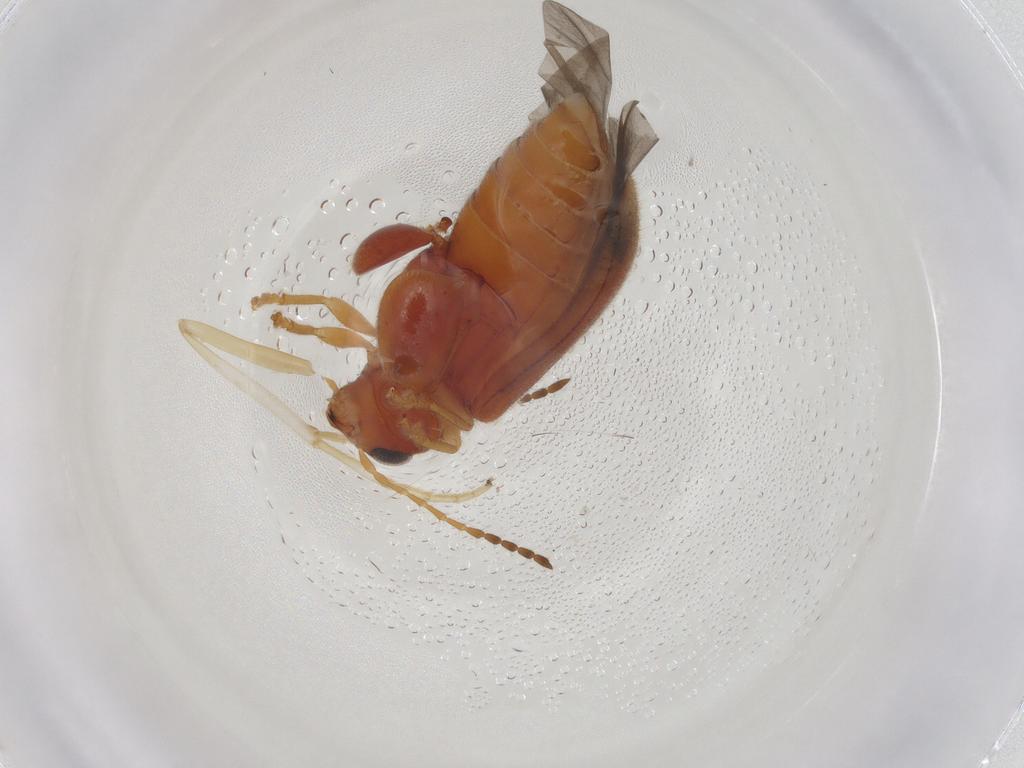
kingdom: Animalia
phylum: Arthropoda
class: Insecta
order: Coleoptera
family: Chrysomelidae
